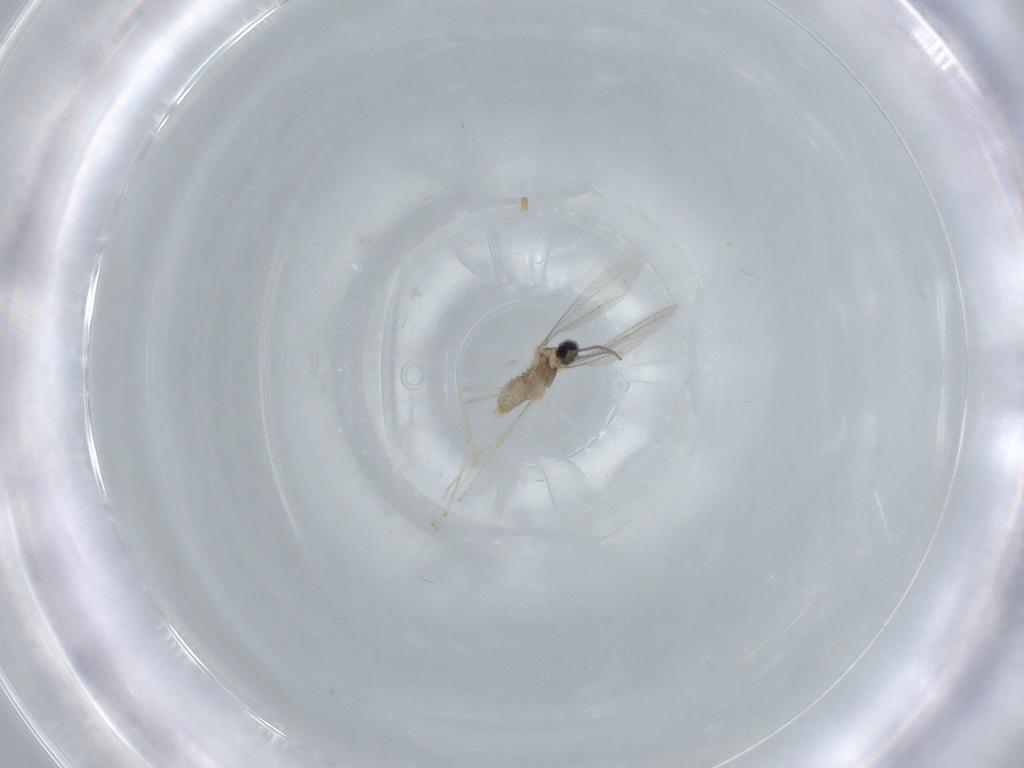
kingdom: Animalia
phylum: Arthropoda
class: Insecta
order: Diptera
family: Cecidomyiidae
